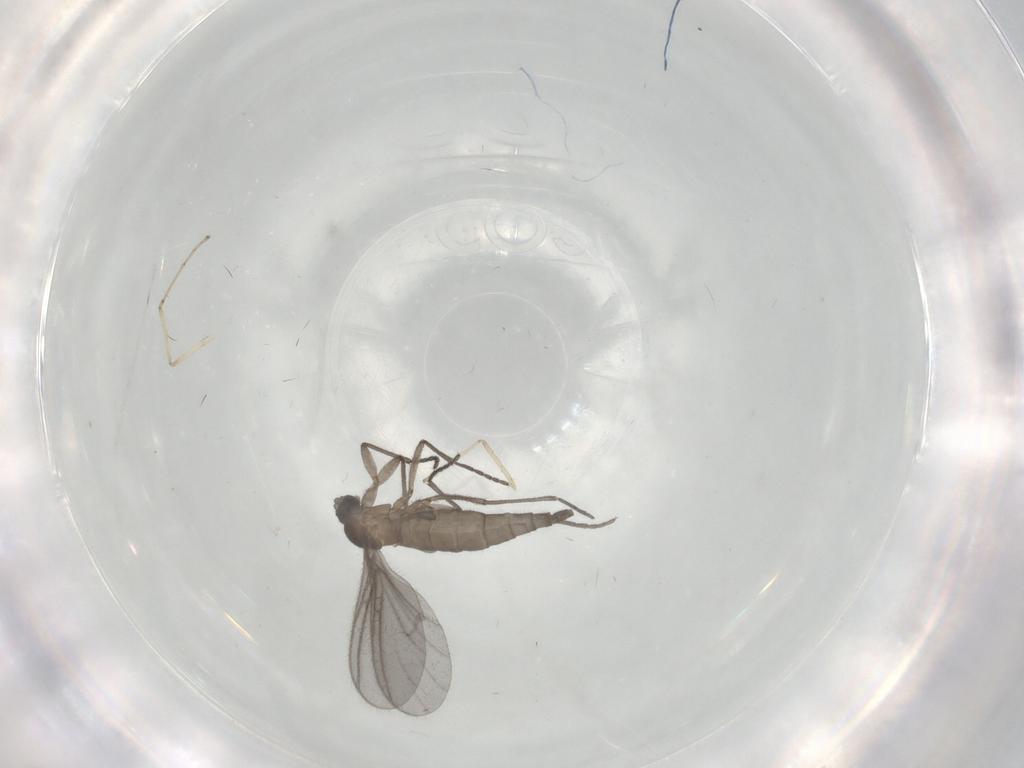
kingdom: Animalia
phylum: Arthropoda
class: Insecta
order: Diptera
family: Sciaridae
